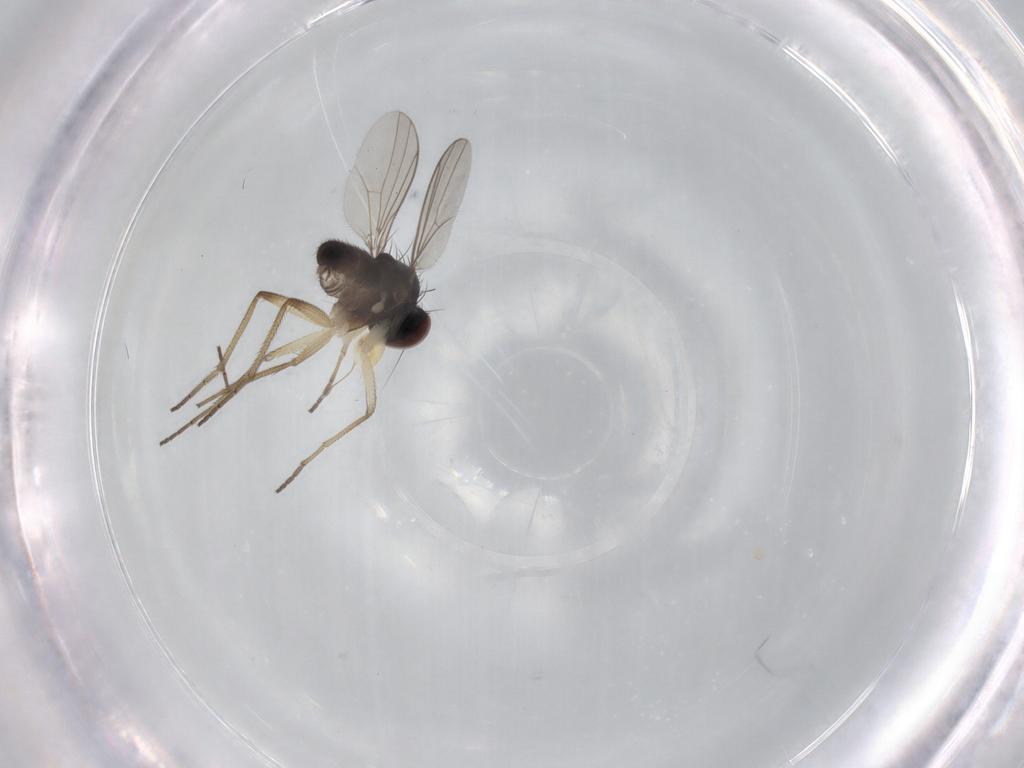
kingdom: Animalia
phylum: Arthropoda
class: Insecta
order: Diptera
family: Dolichopodidae
